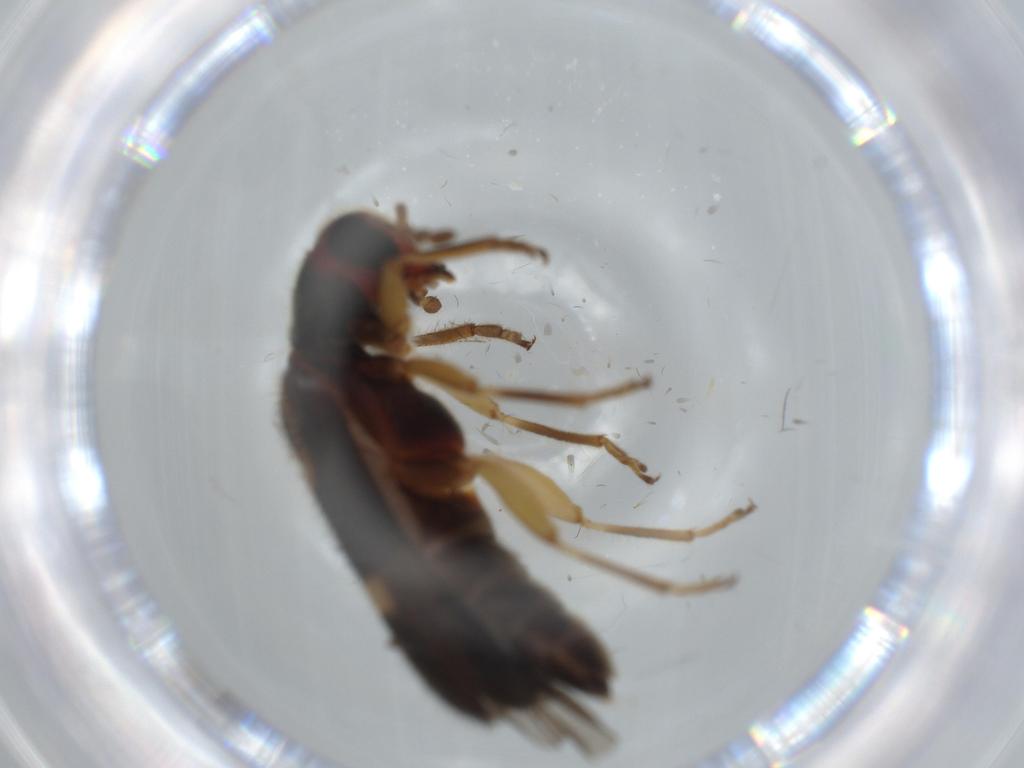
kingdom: Animalia
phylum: Arthropoda
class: Insecta
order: Coleoptera
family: Cleridae
